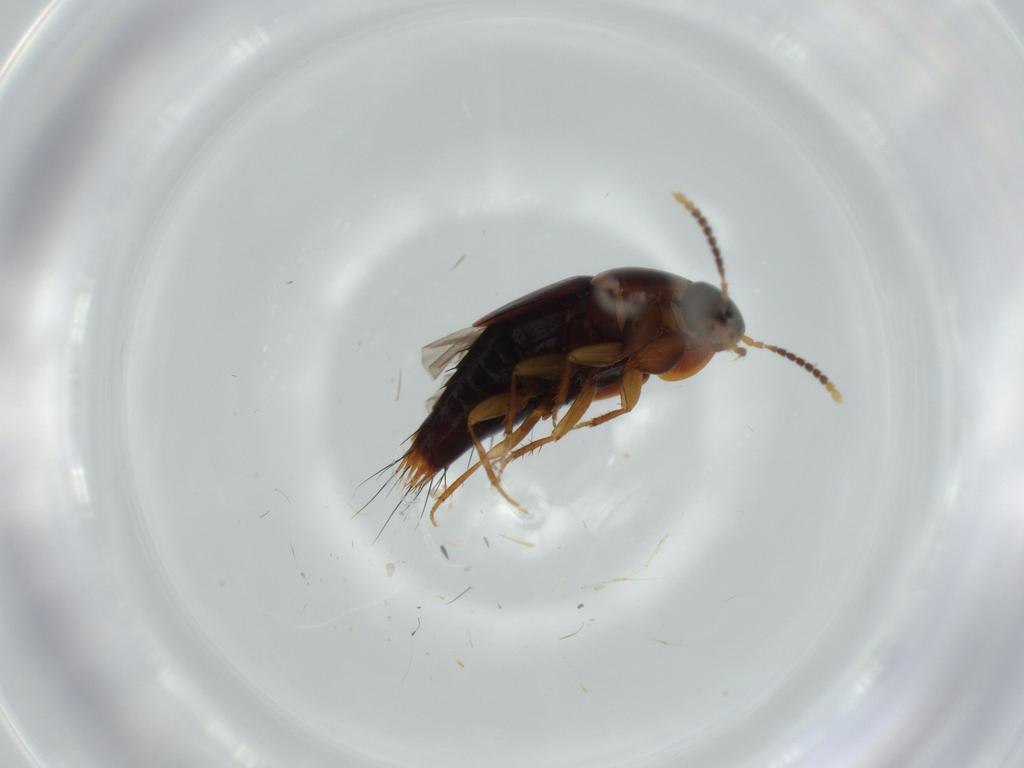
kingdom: Animalia
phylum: Arthropoda
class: Insecta
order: Coleoptera
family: Staphylinidae
